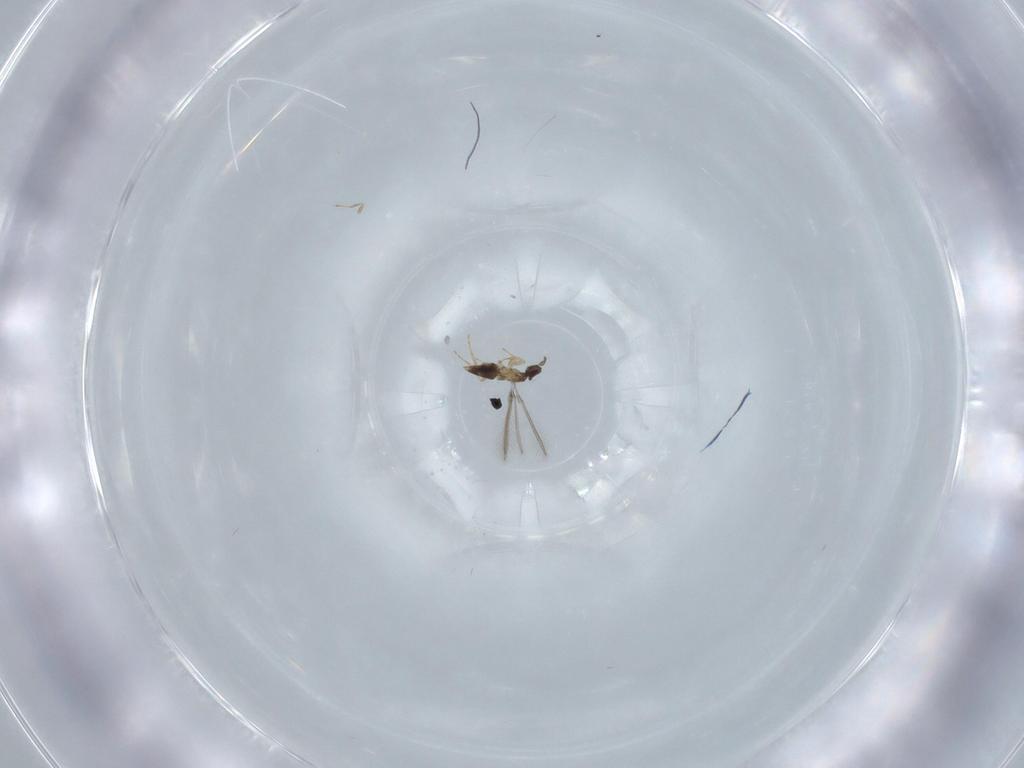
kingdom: Animalia
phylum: Arthropoda
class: Insecta
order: Hymenoptera
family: Mymaridae
